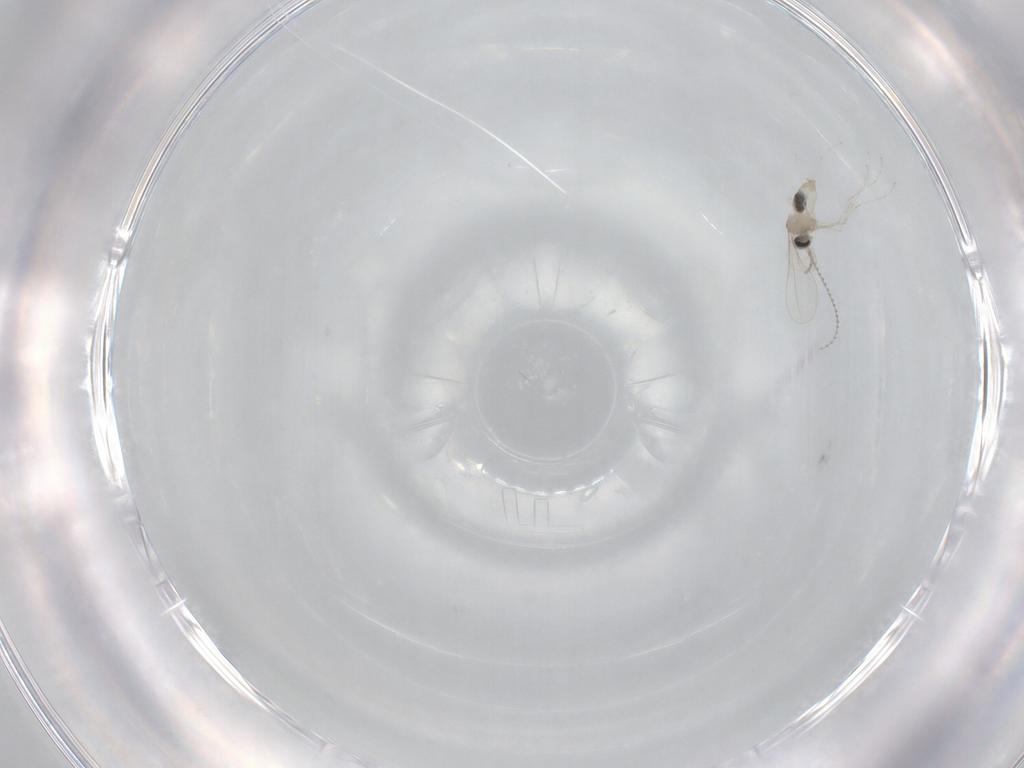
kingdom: Animalia
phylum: Arthropoda
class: Insecta
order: Diptera
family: Cecidomyiidae
